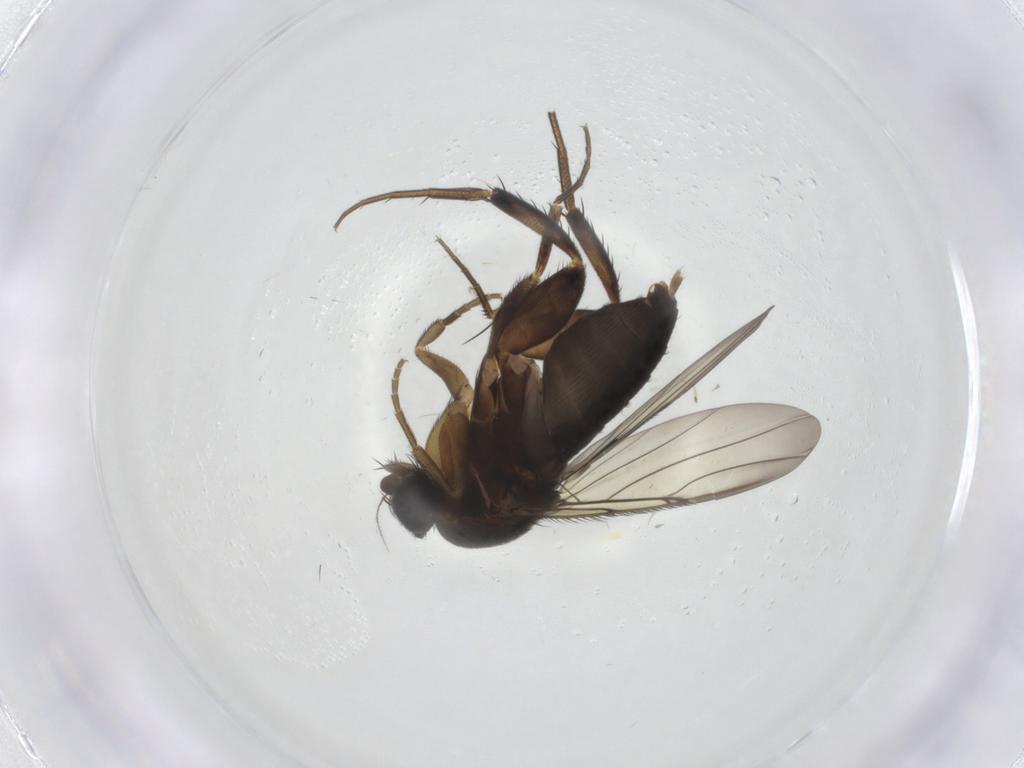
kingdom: Animalia
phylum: Arthropoda
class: Insecta
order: Diptera
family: Phoridae
